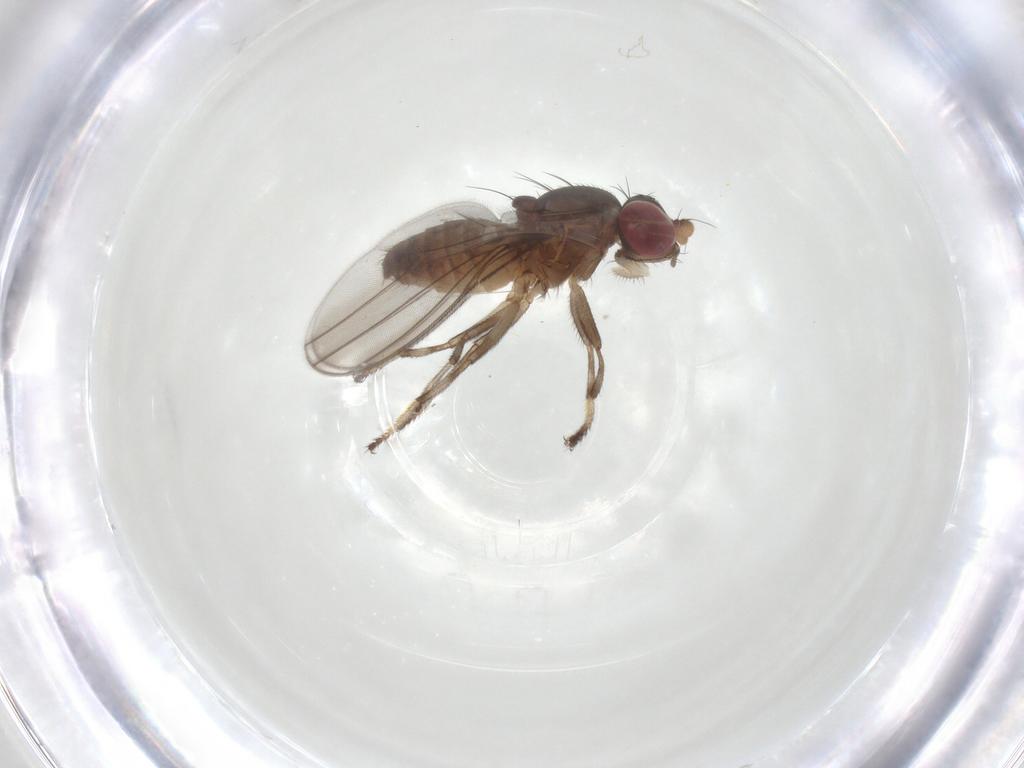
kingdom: Animalia
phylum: Arthropoda
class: Insecta
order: Diptera
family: Aulacigastridae
